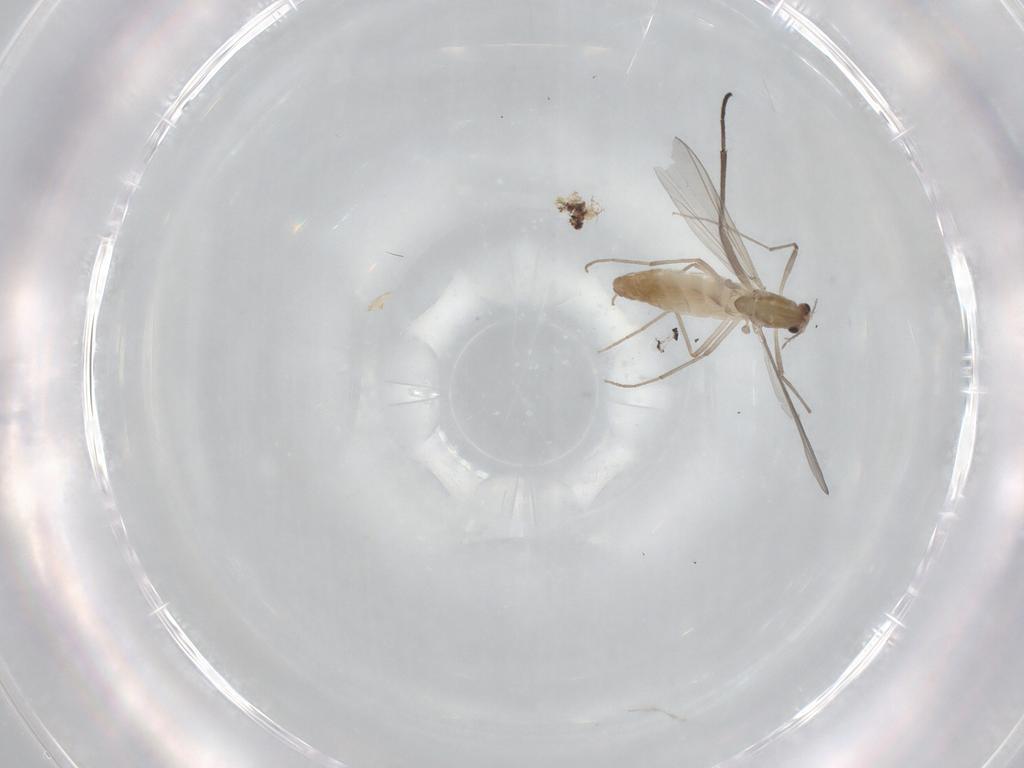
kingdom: Animalia
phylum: Arthropoda
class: Insecta
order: Diptera
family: Chironomidae
